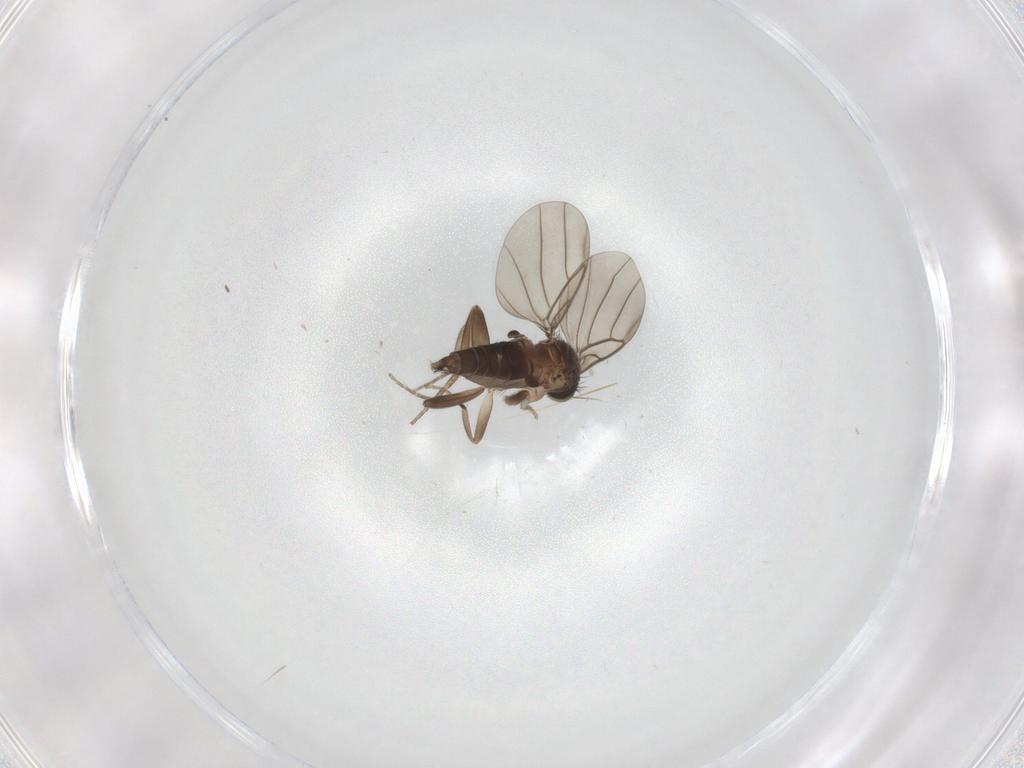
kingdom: Animalia
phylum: Arthropoda
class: Insecta
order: Diptera
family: Phoridae
